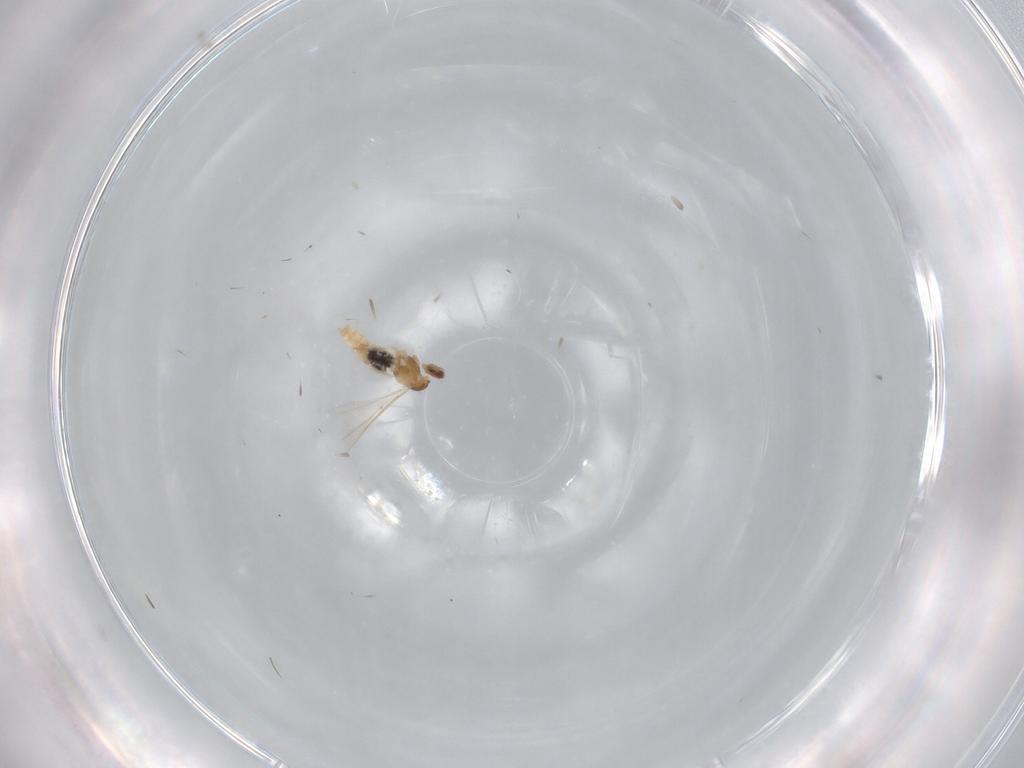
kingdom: Animalia
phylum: Arthropoda
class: Insecta
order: Diptera
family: Cecidomyiidae
